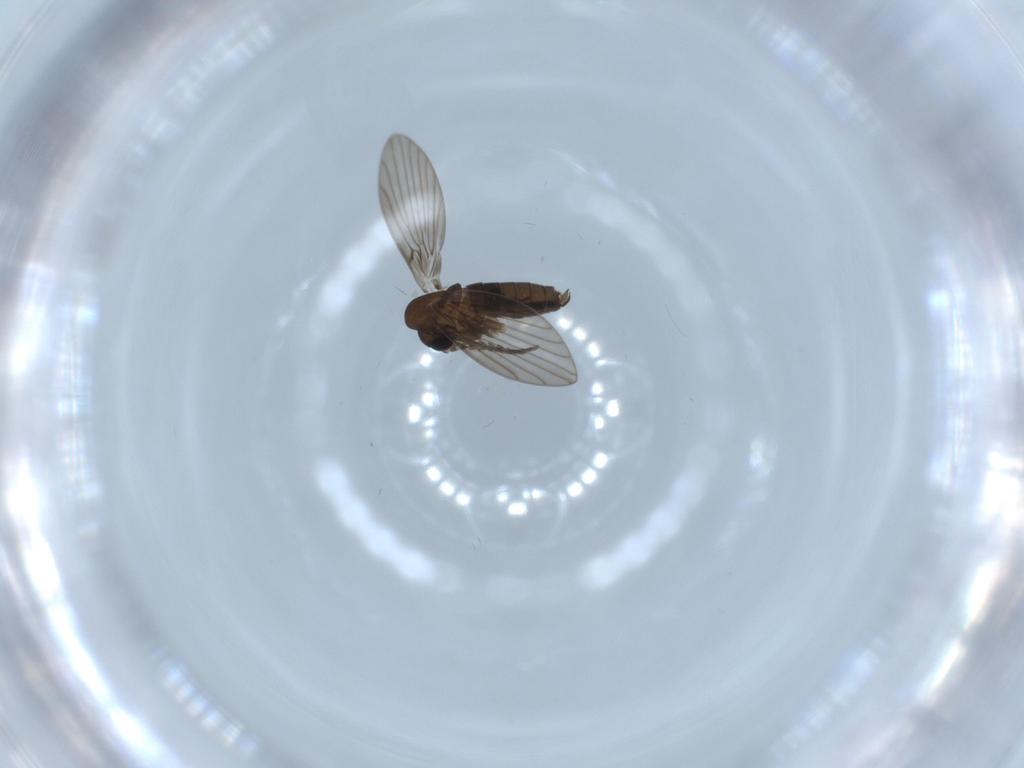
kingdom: Animalia
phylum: Arthropoda
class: Insecta
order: Diptera
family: Psychodidae
